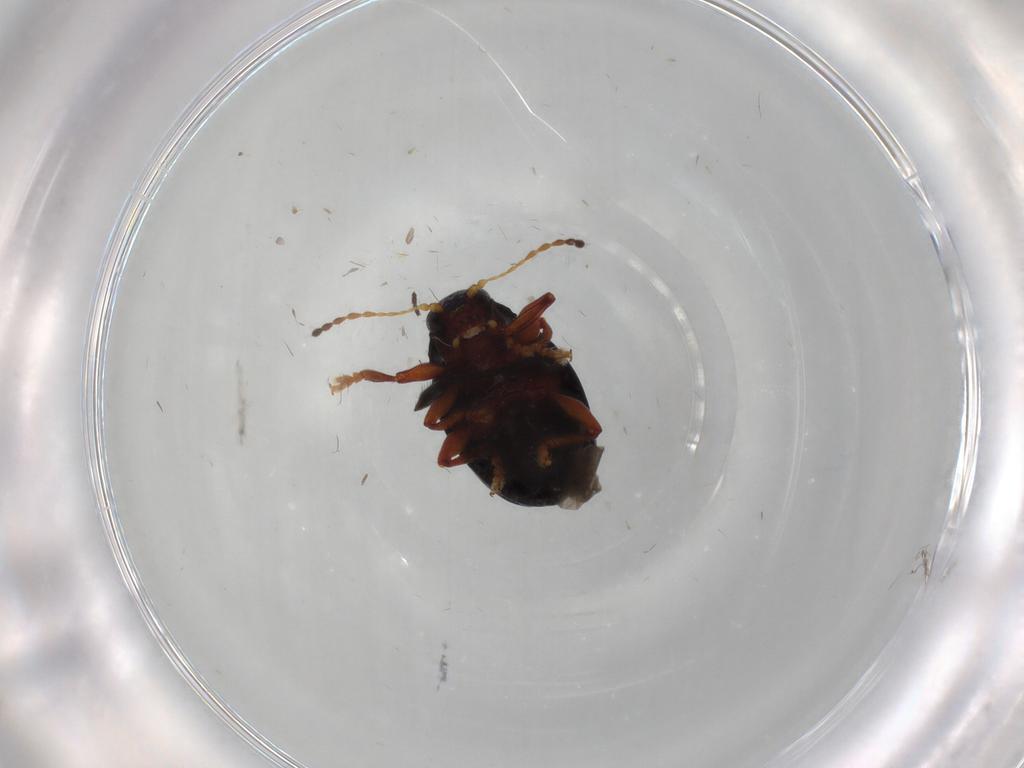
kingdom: Animalia
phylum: Arthropoda
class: Insecta
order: Coleoptera
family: Chrysomelidae
